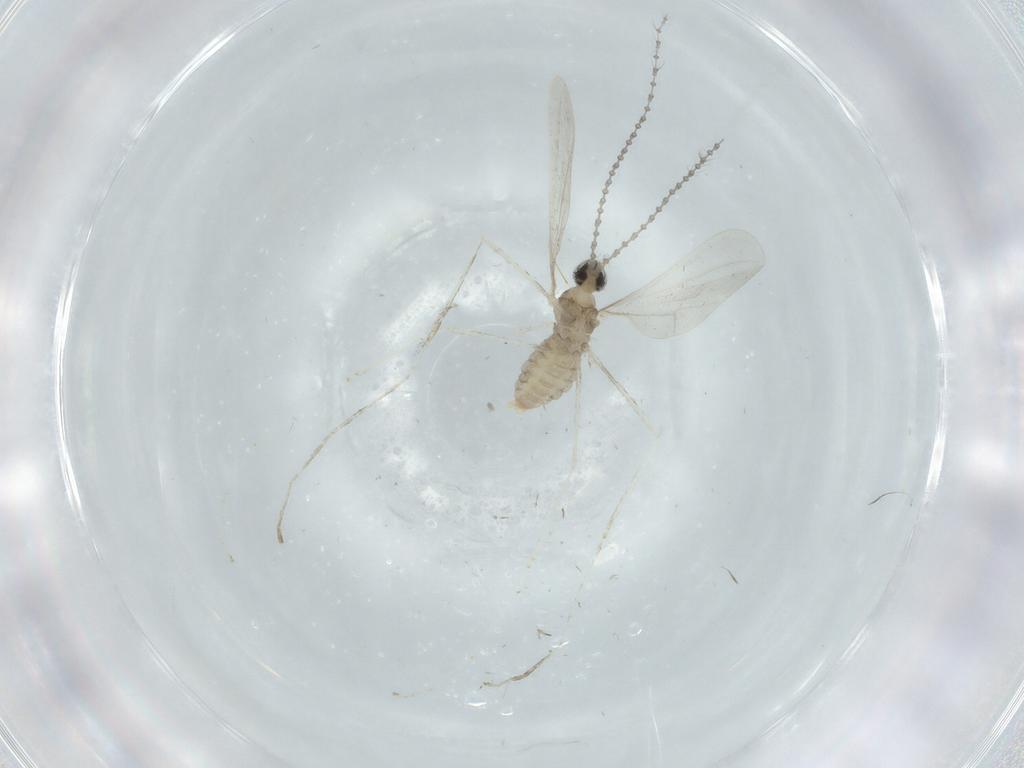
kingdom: Animalia
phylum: Arthropoda
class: Insecta
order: Diptera
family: Cecidomyiidae
